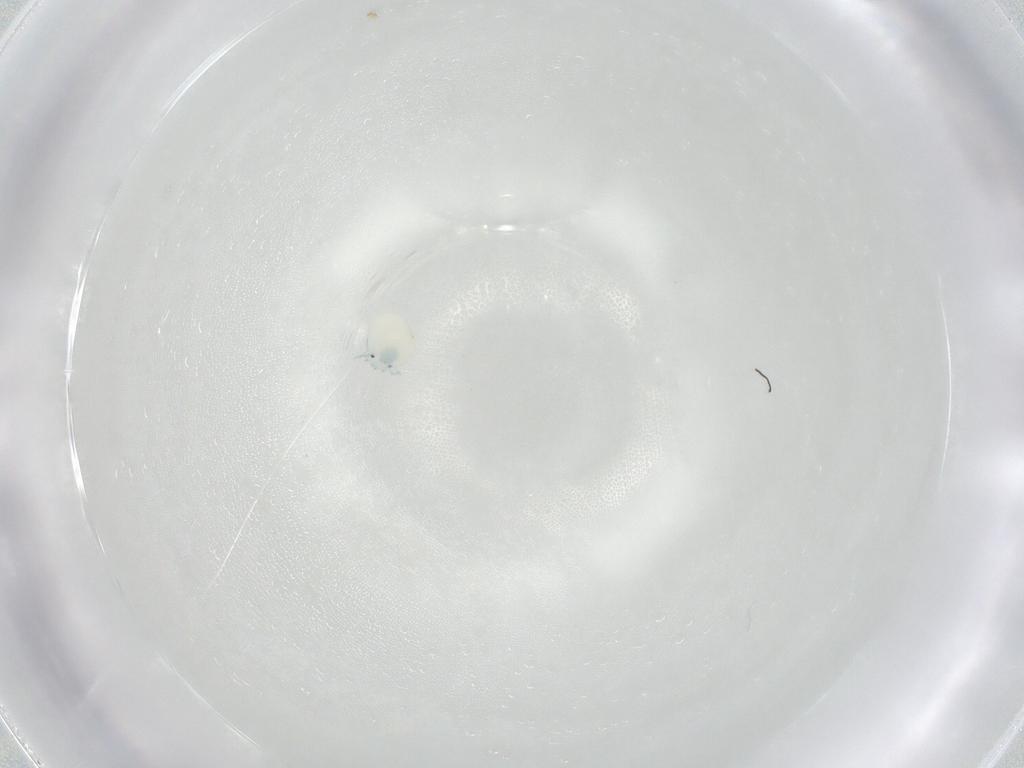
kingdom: Animalia
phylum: Arthropoda
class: Arachnida
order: Trombidiformes
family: Arrenuridae
